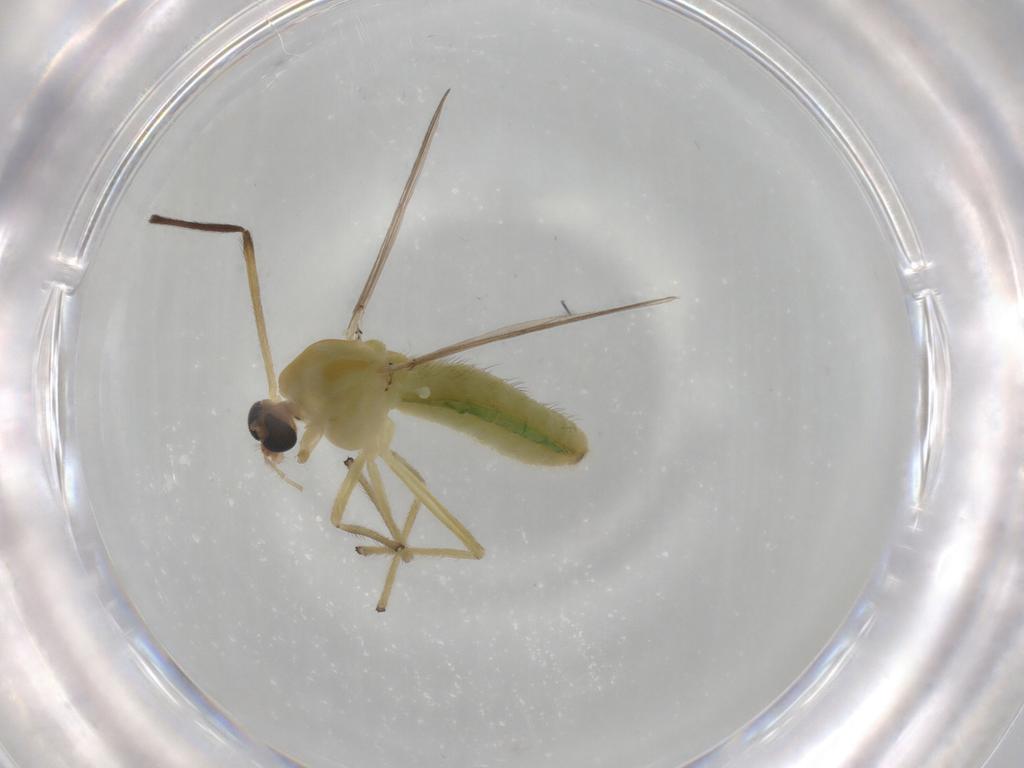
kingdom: Animalia
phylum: Arthropoda
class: Insecta
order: Diptera
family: Chironomidae
